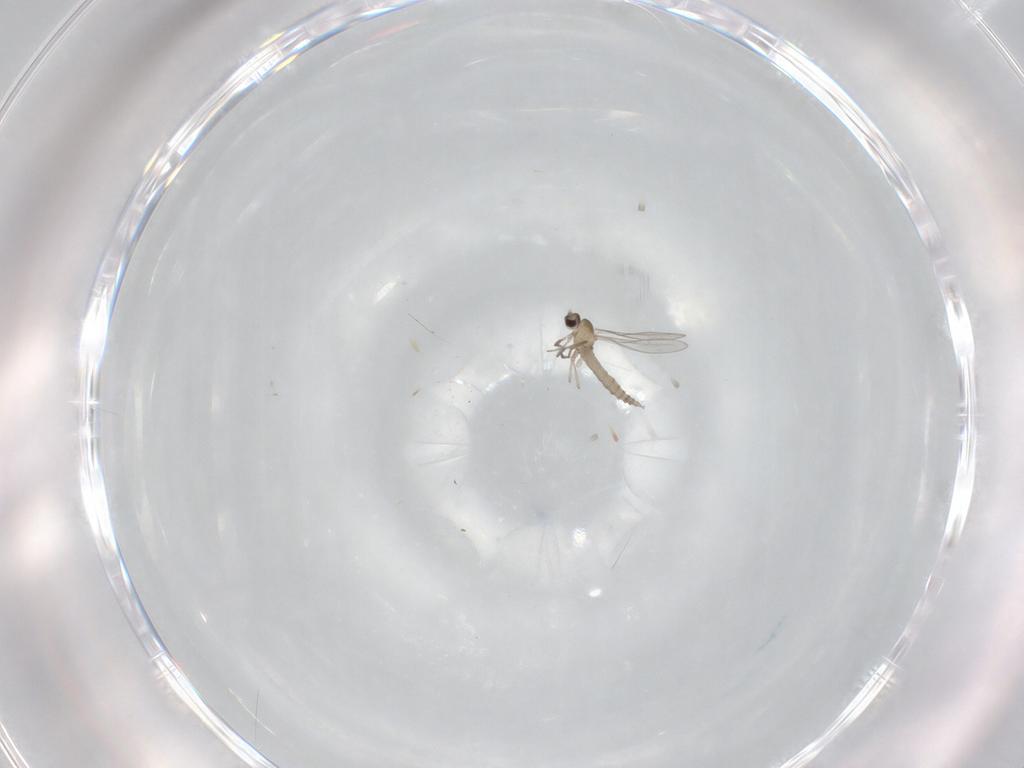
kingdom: Animalia
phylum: Arthropoda
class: Insecta
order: Diptera
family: Cecidomyiidae
